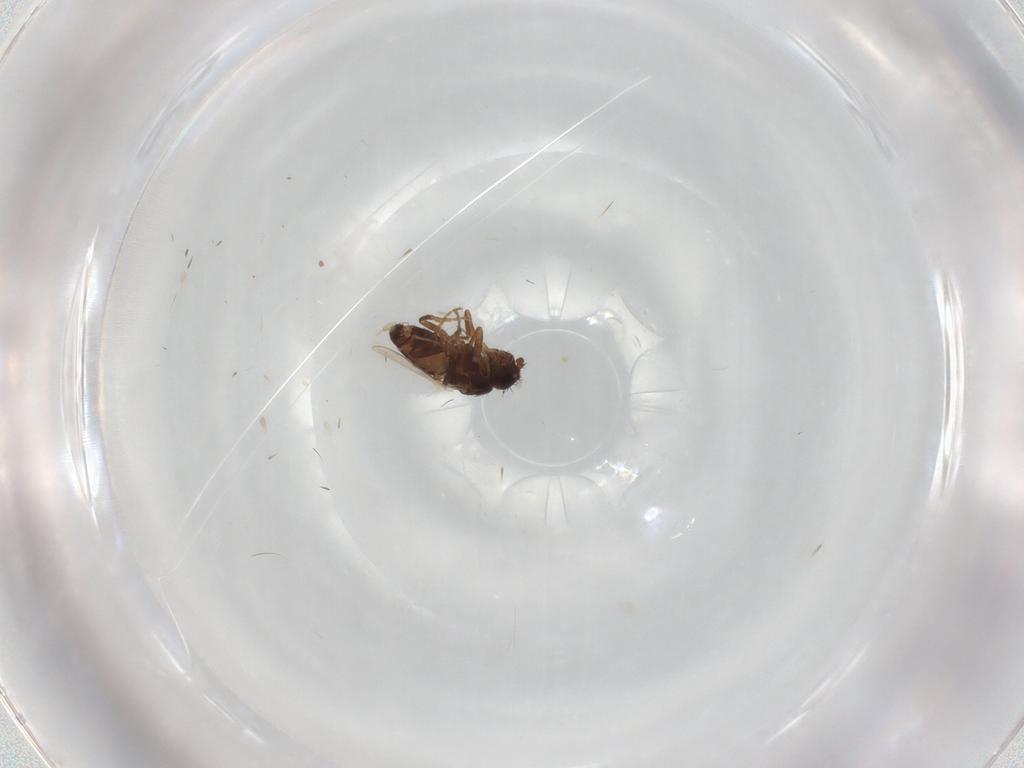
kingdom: Animalia
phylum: Arthropoda
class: Insecta
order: Diptera
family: Sphaeroceridae
